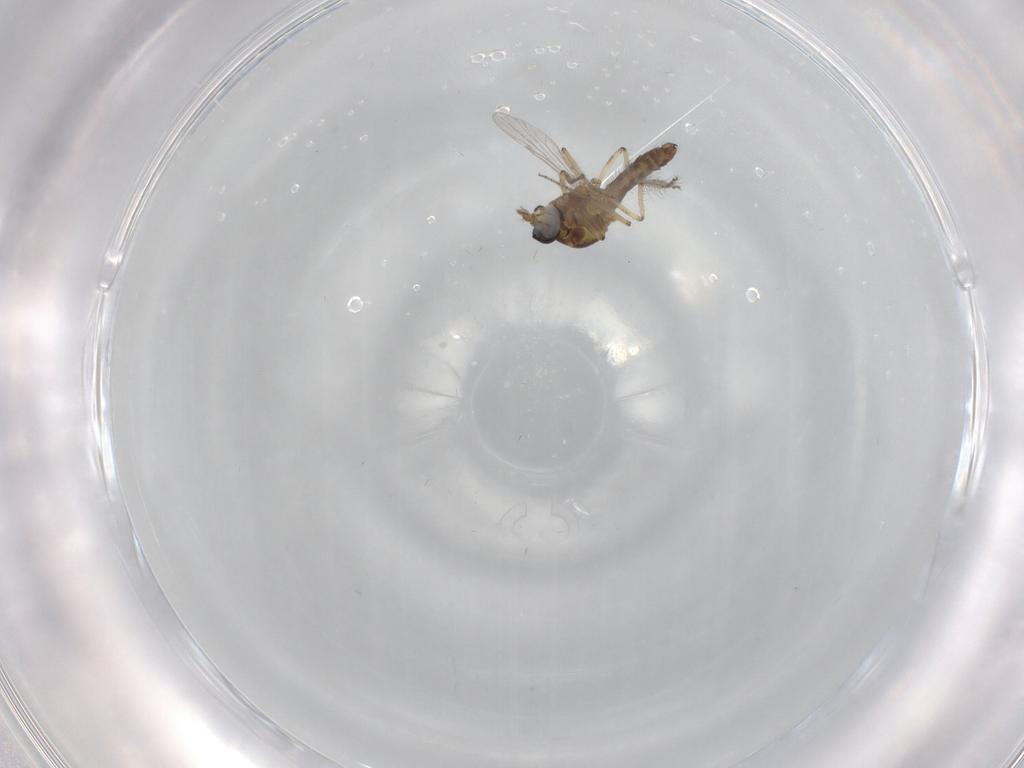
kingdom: Animalia
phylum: Arthropoda
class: Insecta
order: Diptera
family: Ceratopogonidae
